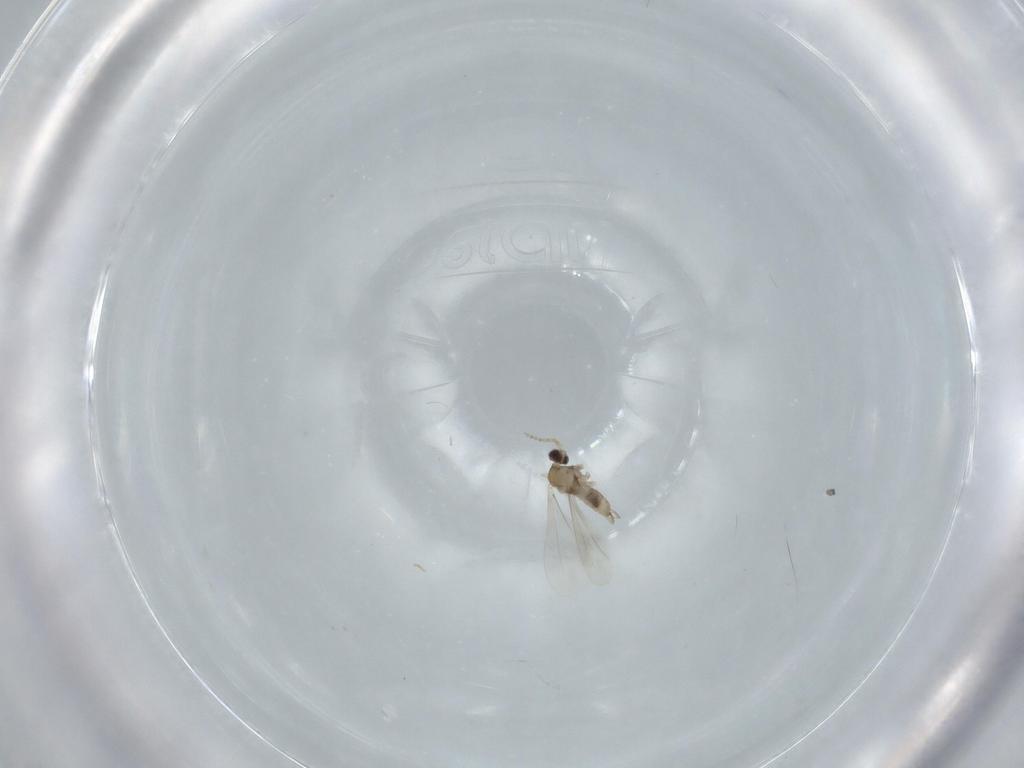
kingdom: Animalia
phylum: Arthropoda
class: Insecta
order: Diptera
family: Cecidomyiidae
